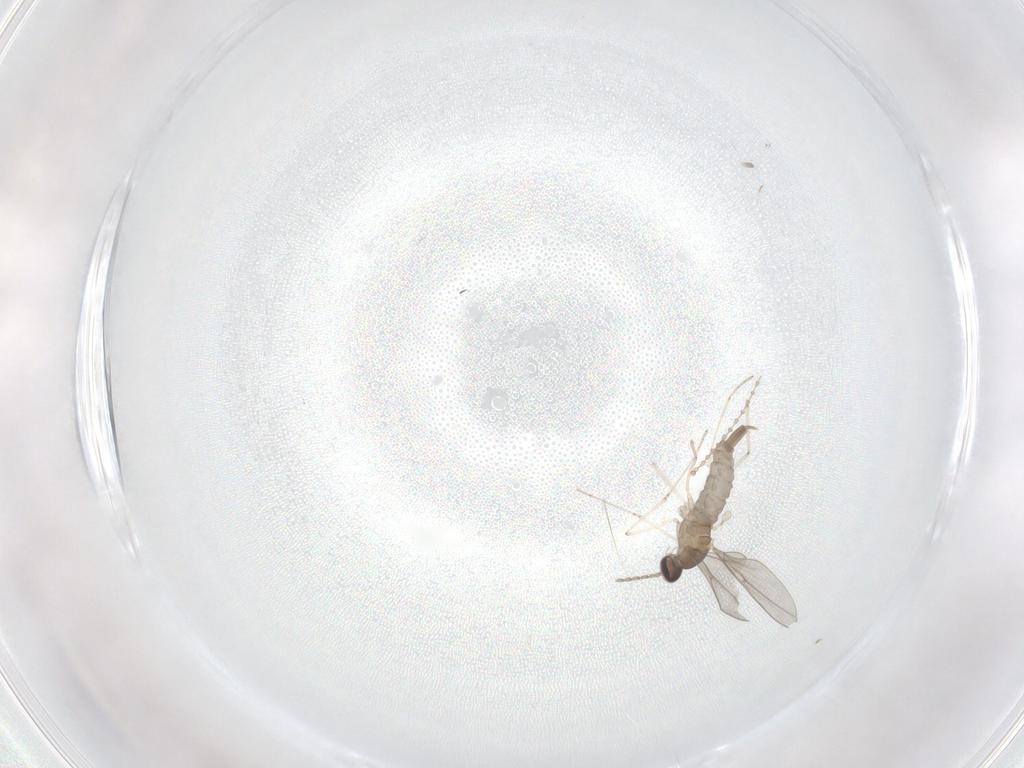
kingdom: Animalia
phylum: Arthropoda
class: Insecta
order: Diptera
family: Cecidomyiidae
